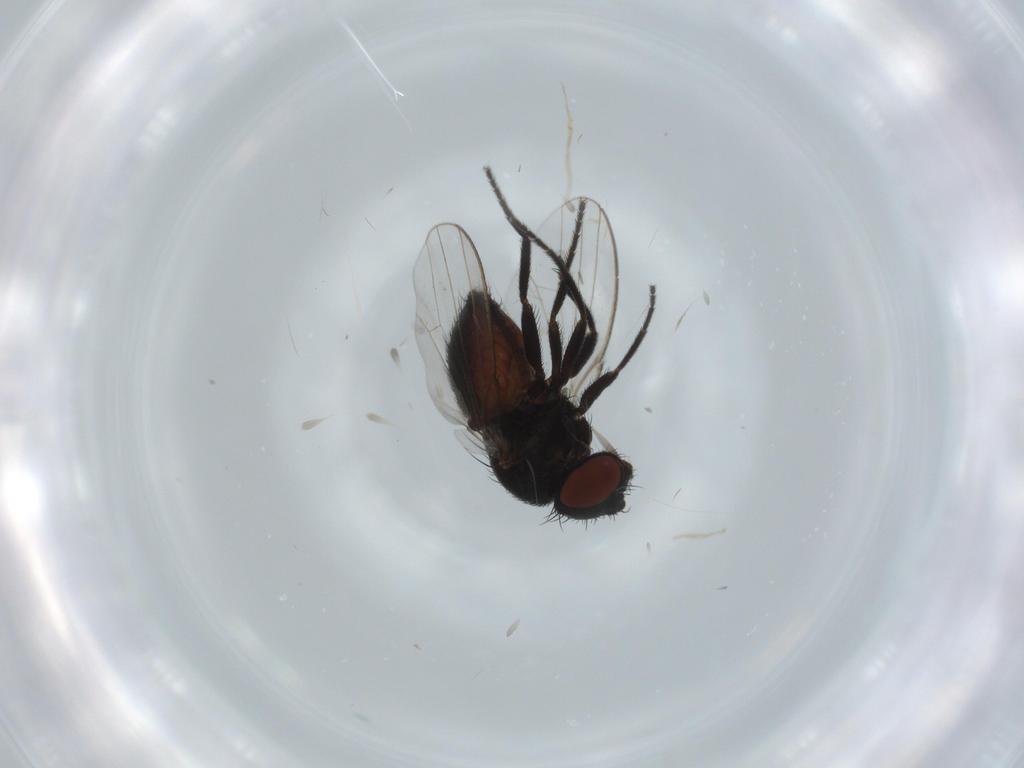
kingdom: Animalia
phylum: Arthropoda
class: Insecta
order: Diptera
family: Milichiidae
